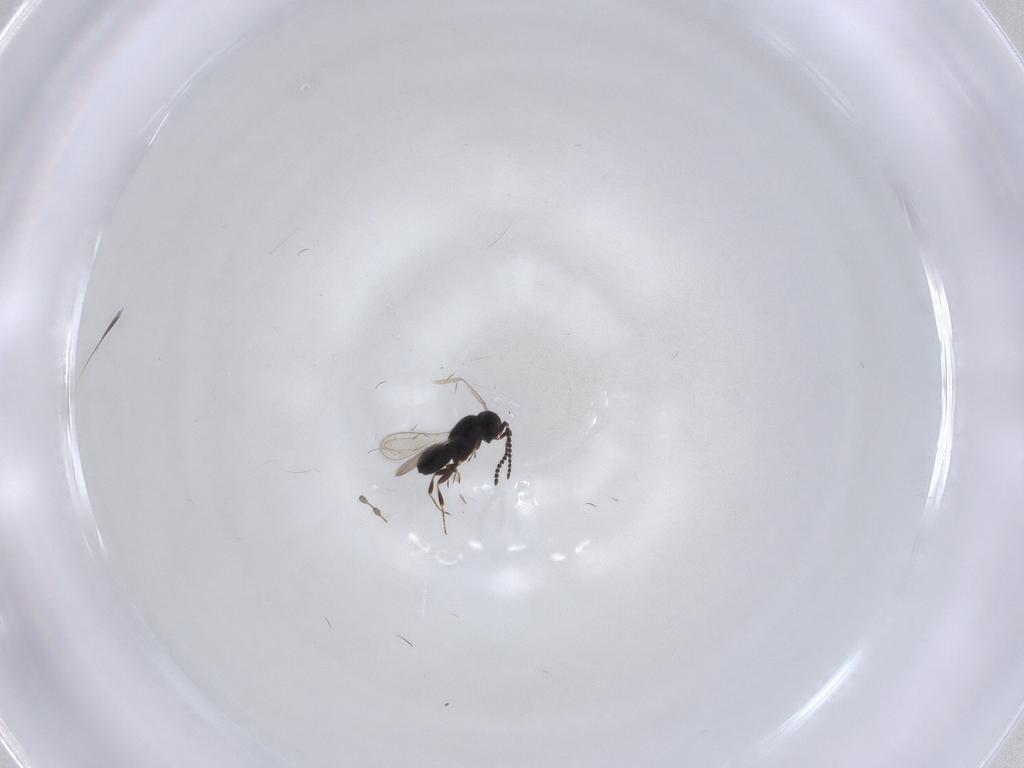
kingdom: Animalia
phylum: Arthropoda
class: Insecta
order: Hymenoptera
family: Scelionidae
